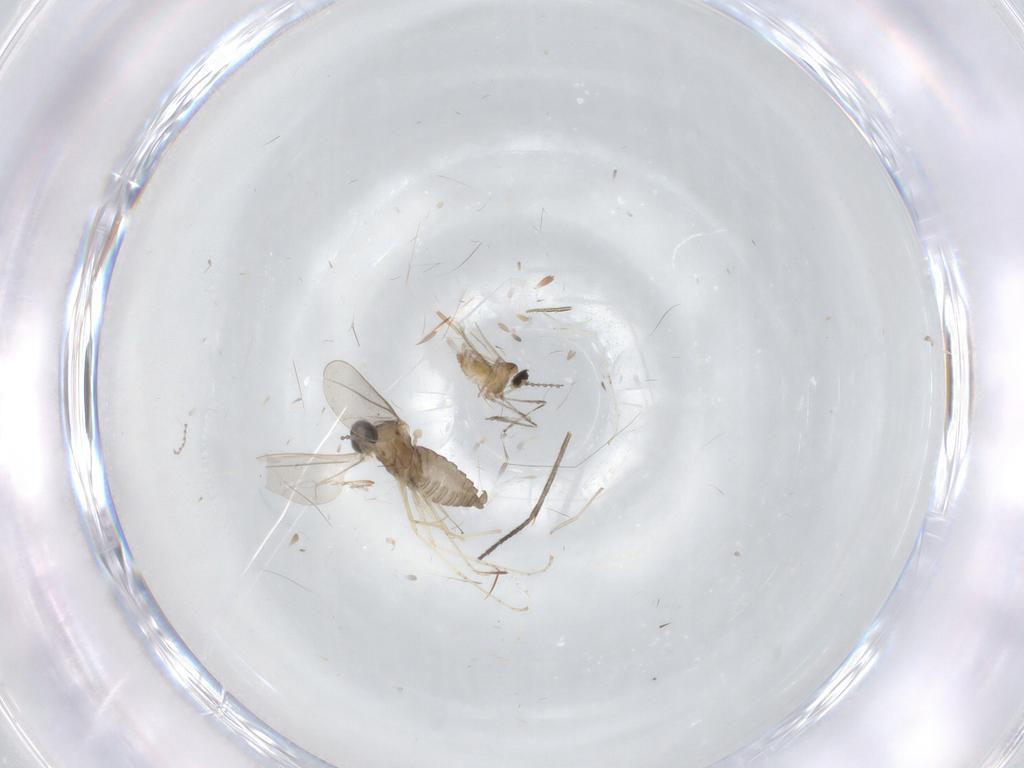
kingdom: Animalia
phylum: Arthropoda
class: Insecta
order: Diptera
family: Cecidomyiidae
